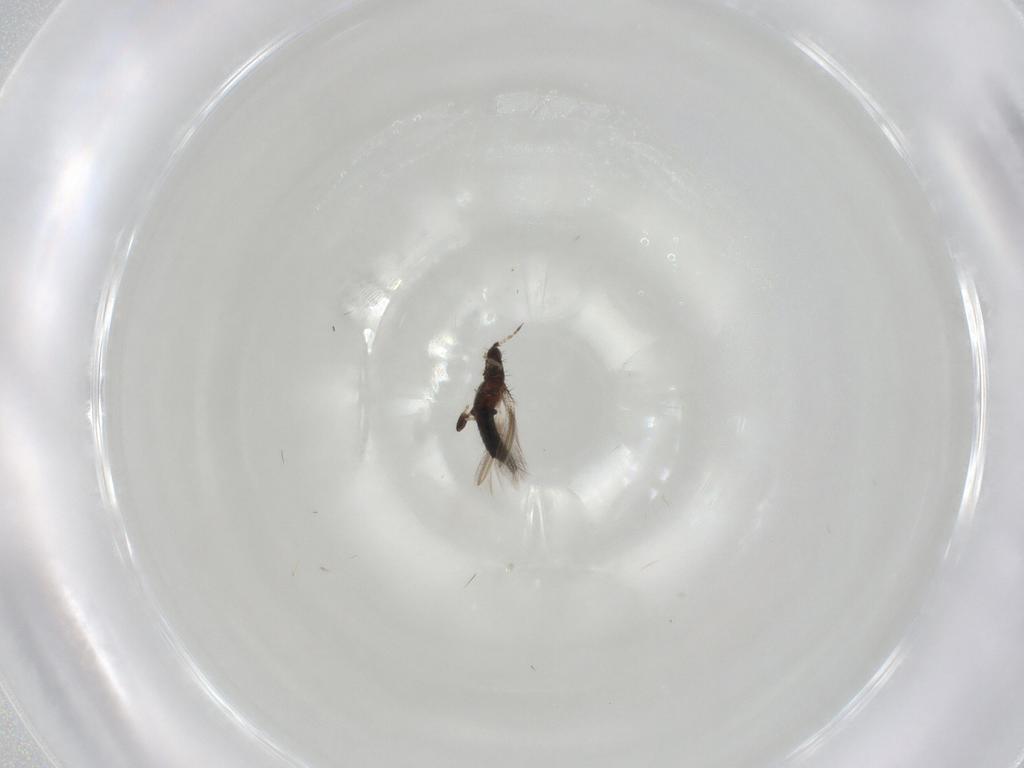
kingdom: Animalia
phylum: Arthropoda
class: Insecta
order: Thysanoptera
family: Thripidae
